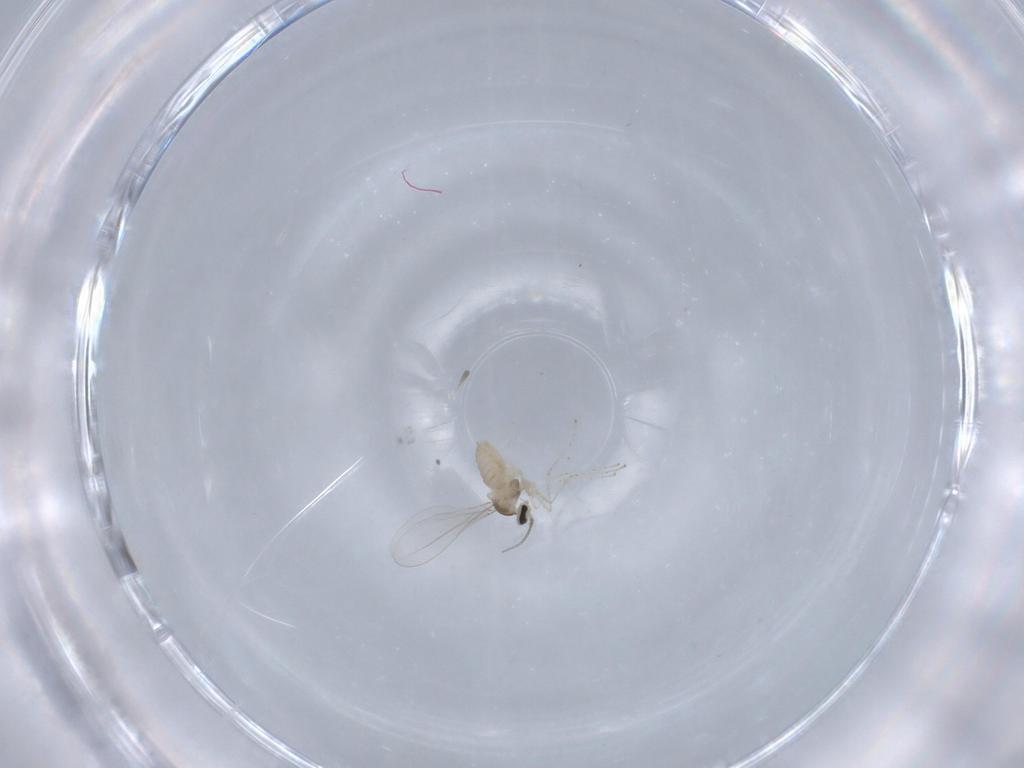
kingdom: Animalia
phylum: Arthropoda
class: Insecta
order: Diptera
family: Cecidomyiidae
